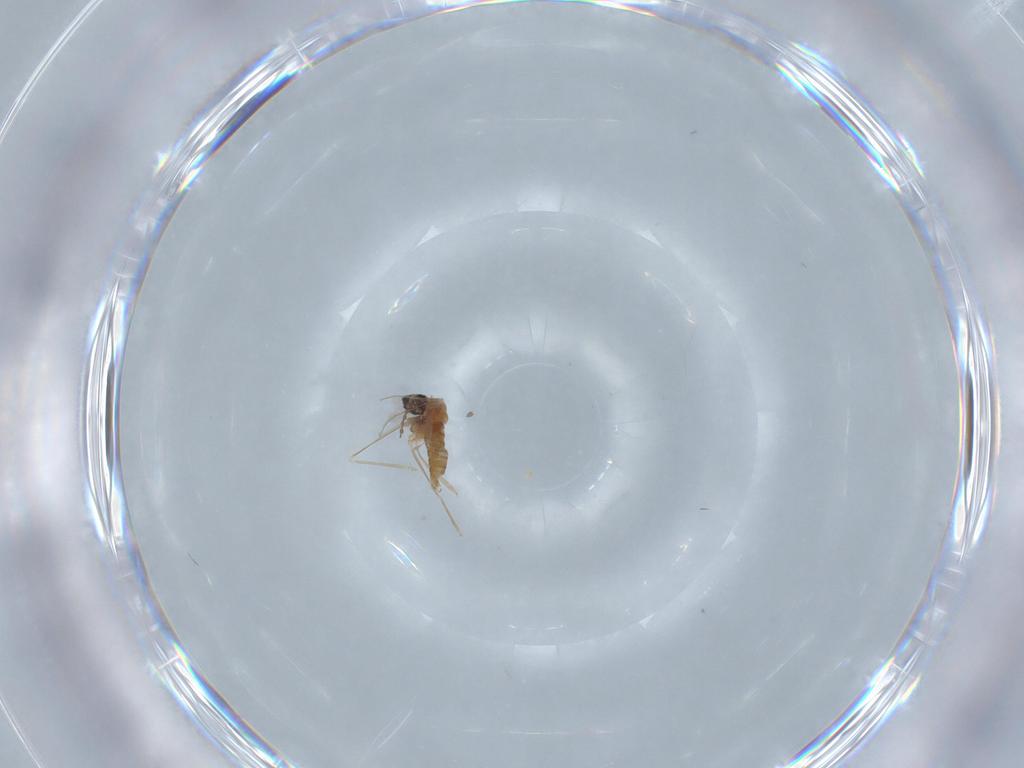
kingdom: Animalia
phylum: Arthropoda
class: Insecta
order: Diptera
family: Cecidomyiidae
